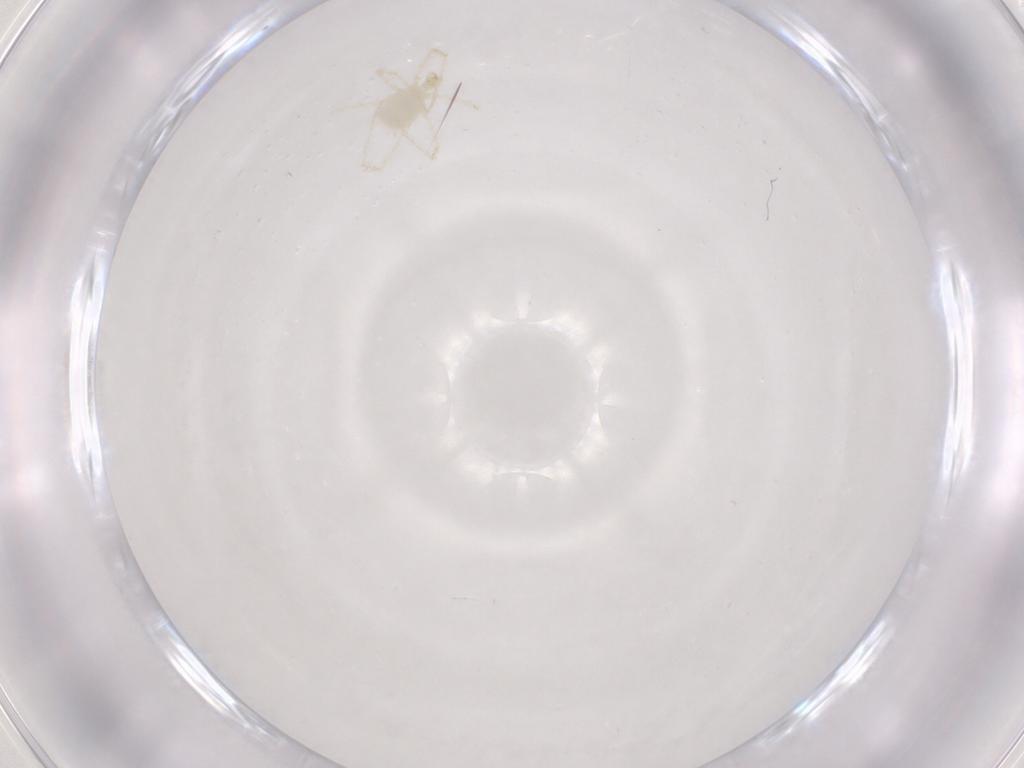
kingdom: Animalia
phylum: Arthropoda
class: Arachnida
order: Trombidiformes
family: Erythraeidae
